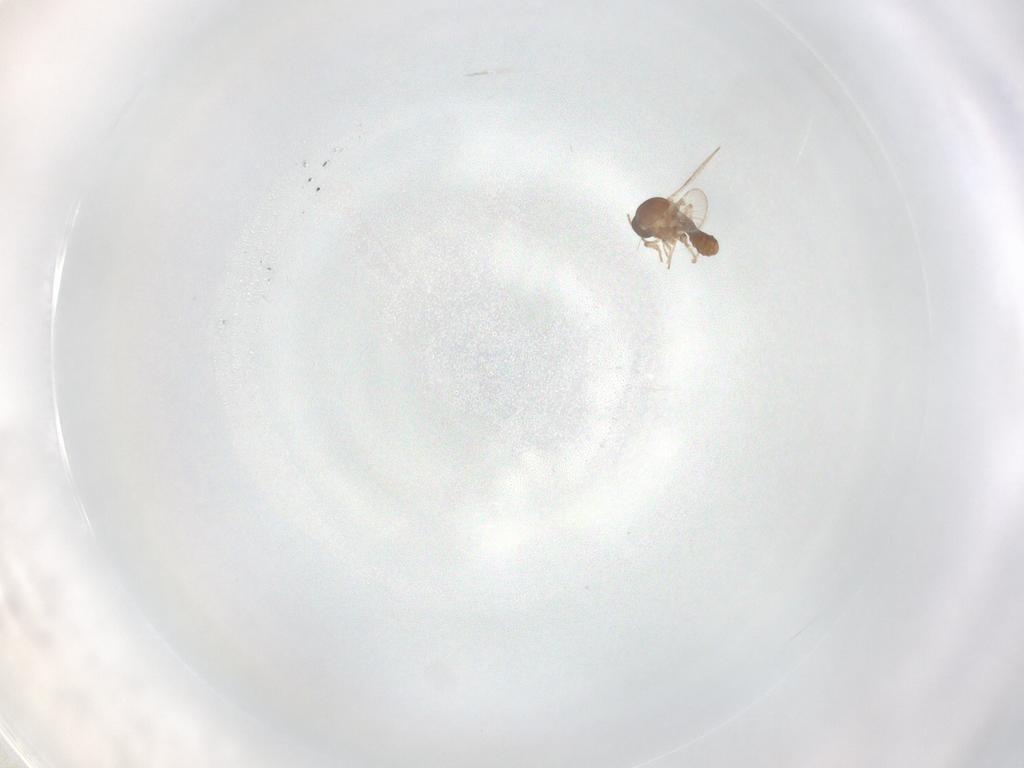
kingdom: Animalia
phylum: Arthropoda
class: Insecta
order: Diptera
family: Ceratopogonidae
